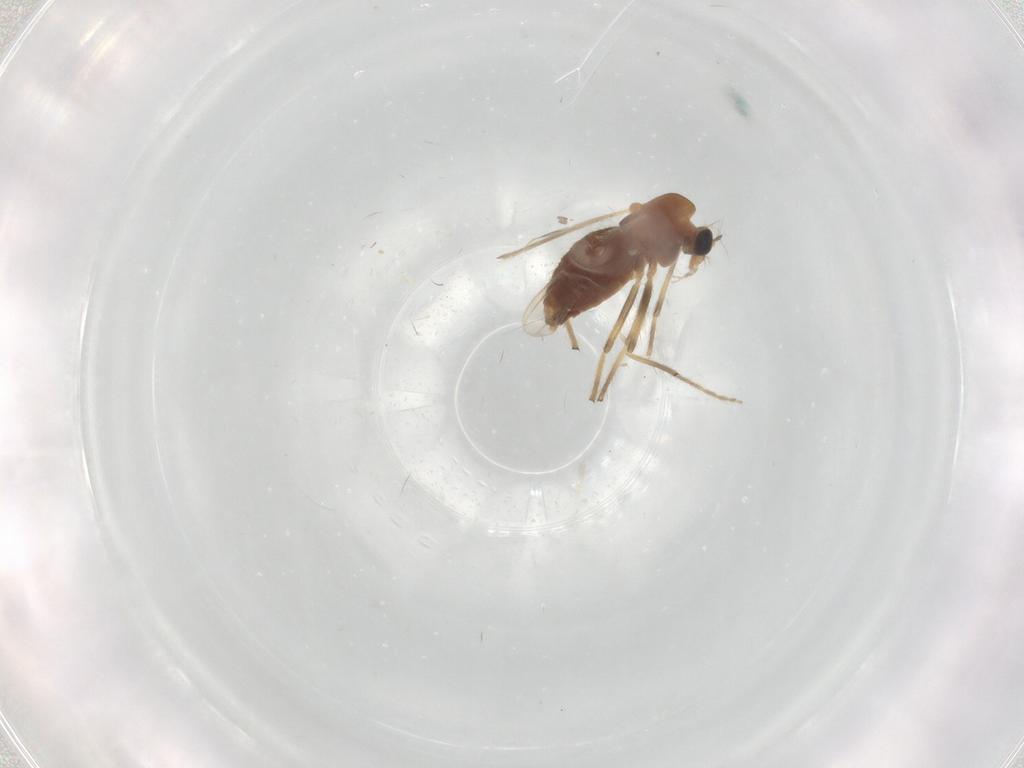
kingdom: Animalia
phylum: Arthropoda
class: Insecta
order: Diptera
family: Chironomidae
